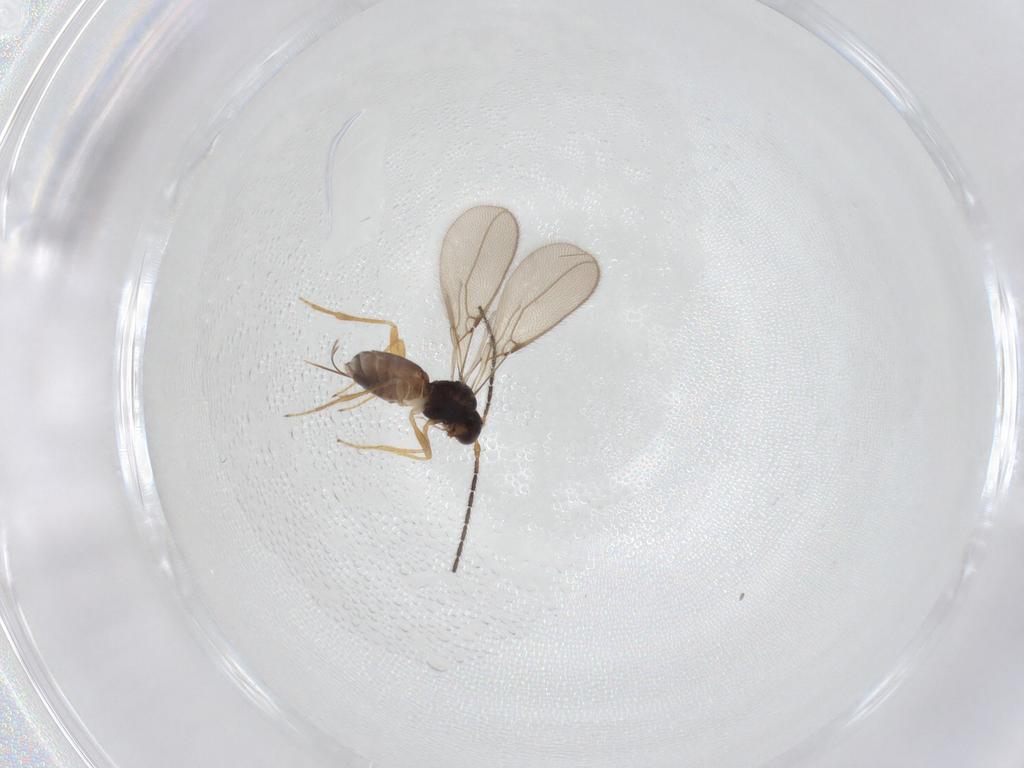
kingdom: Animalia
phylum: Arthropoda
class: Insecta
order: Hymenoptera
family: Braconidae
